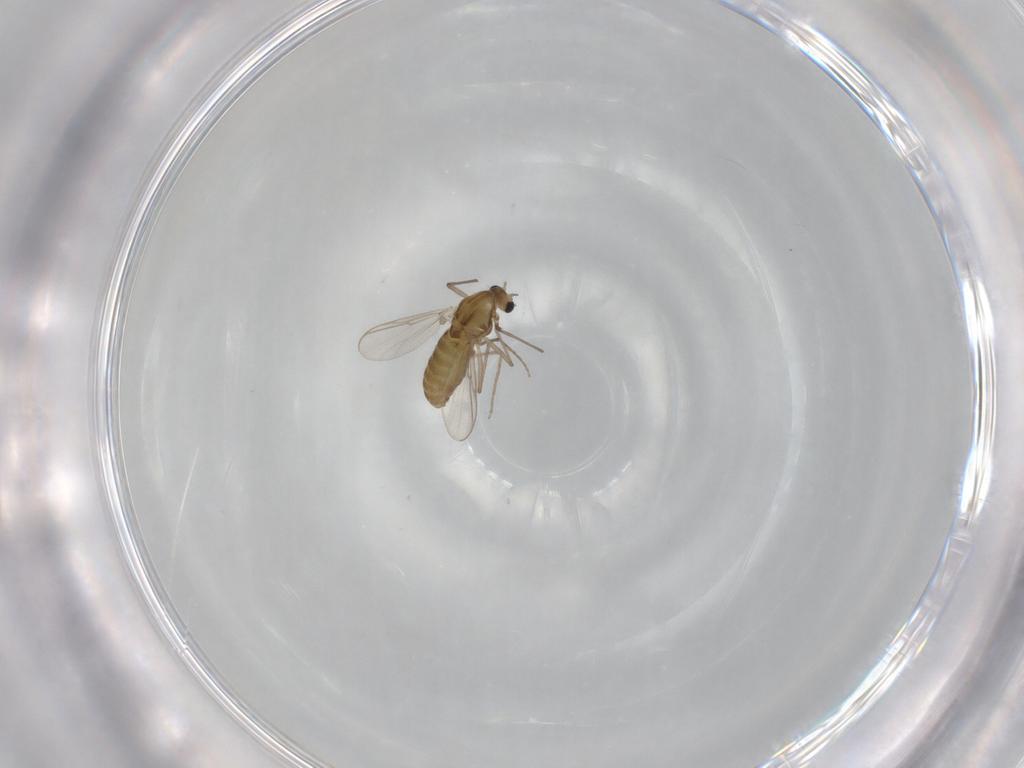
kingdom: Animalia
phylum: Arthropoda
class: Insecta
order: Diptera
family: Chironomidae
